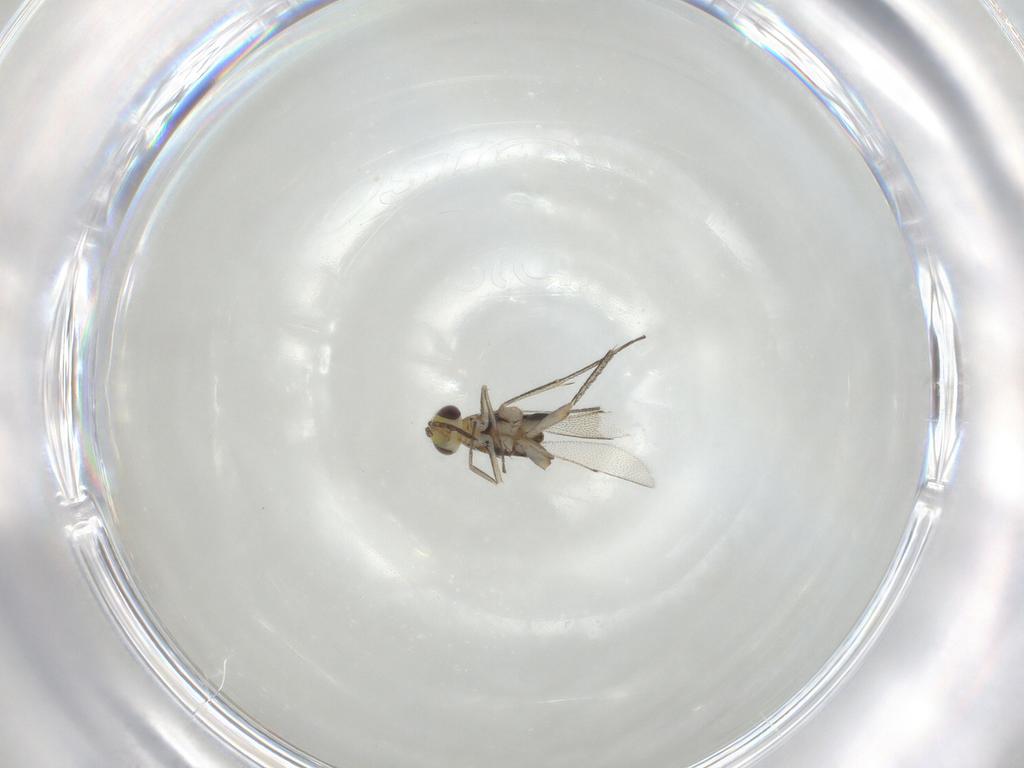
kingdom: Animalia
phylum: Arthropoda
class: Insecta
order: Hymenoptera
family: Eulophidae
